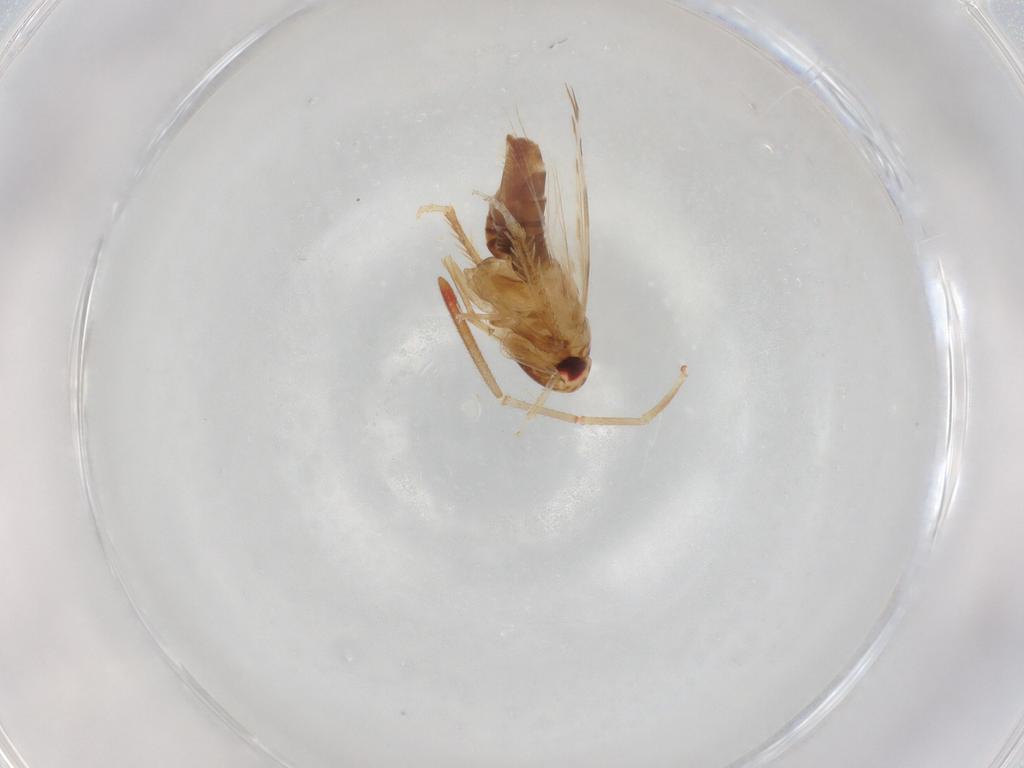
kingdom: Animalia
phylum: Arthropoda
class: Insecta
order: Hemiptera
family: Cicadellidae
